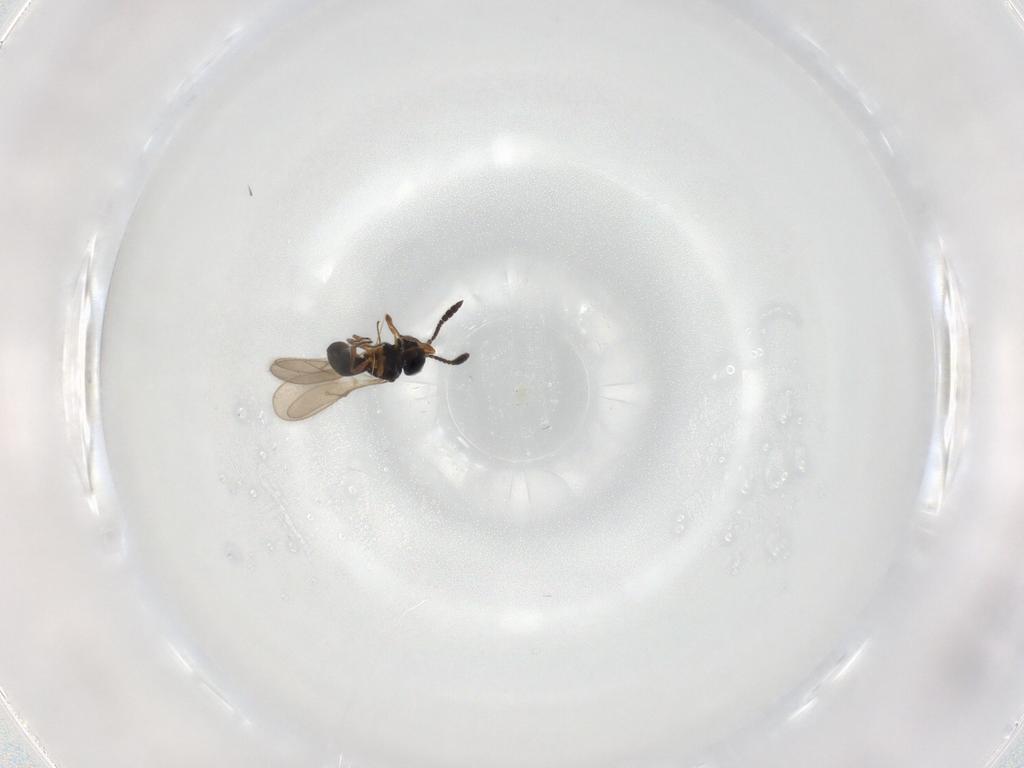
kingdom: Animalia
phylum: Arthropoda
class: Insecta
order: Hymenoptera
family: Scelionidae
